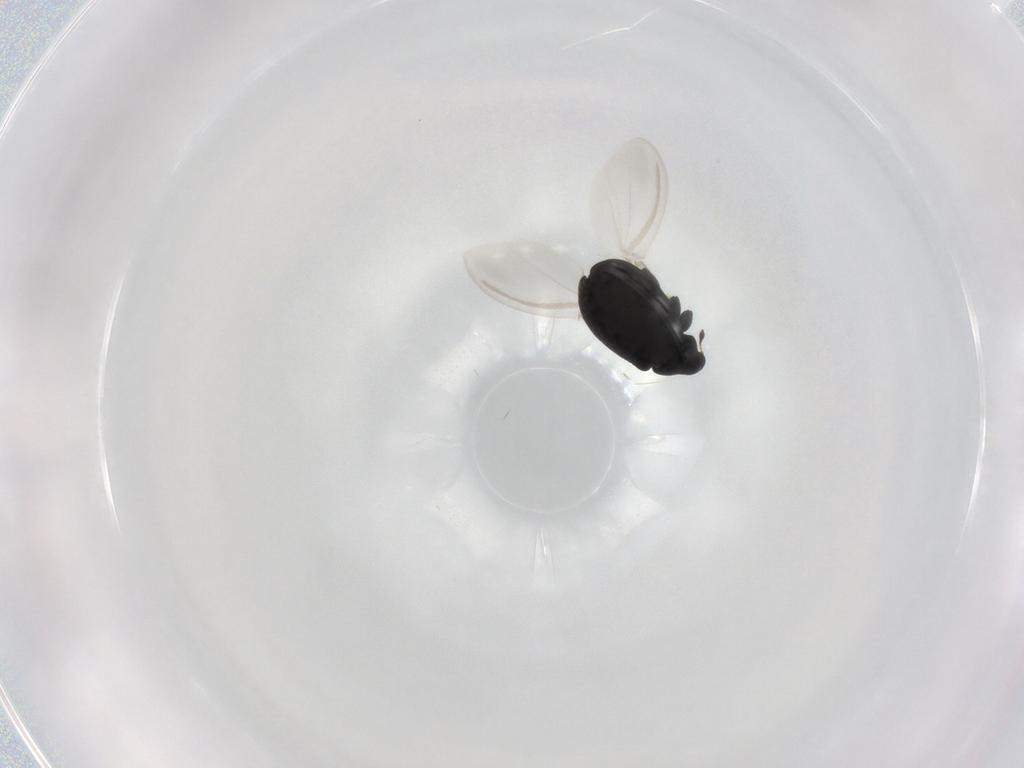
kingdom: Animalia
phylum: Arthropoda
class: Insecta
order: Coleoptera
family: Curculionidae
